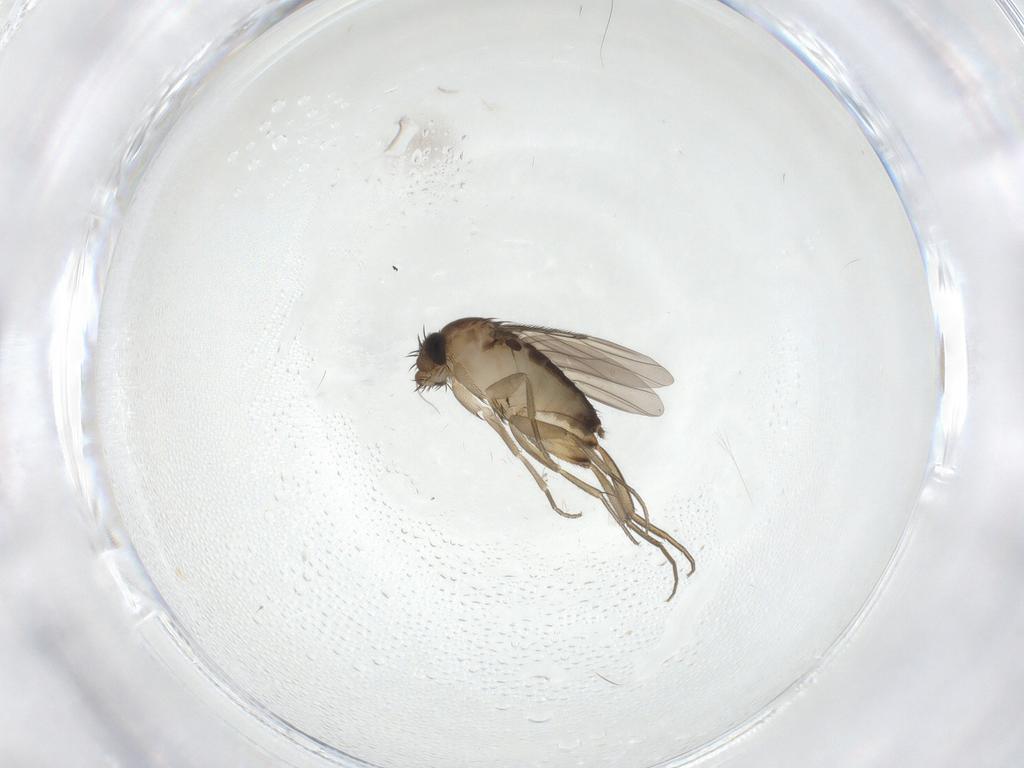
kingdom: Animalia
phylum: Arthropoda
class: Insecta
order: Diptera
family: Phoridae
